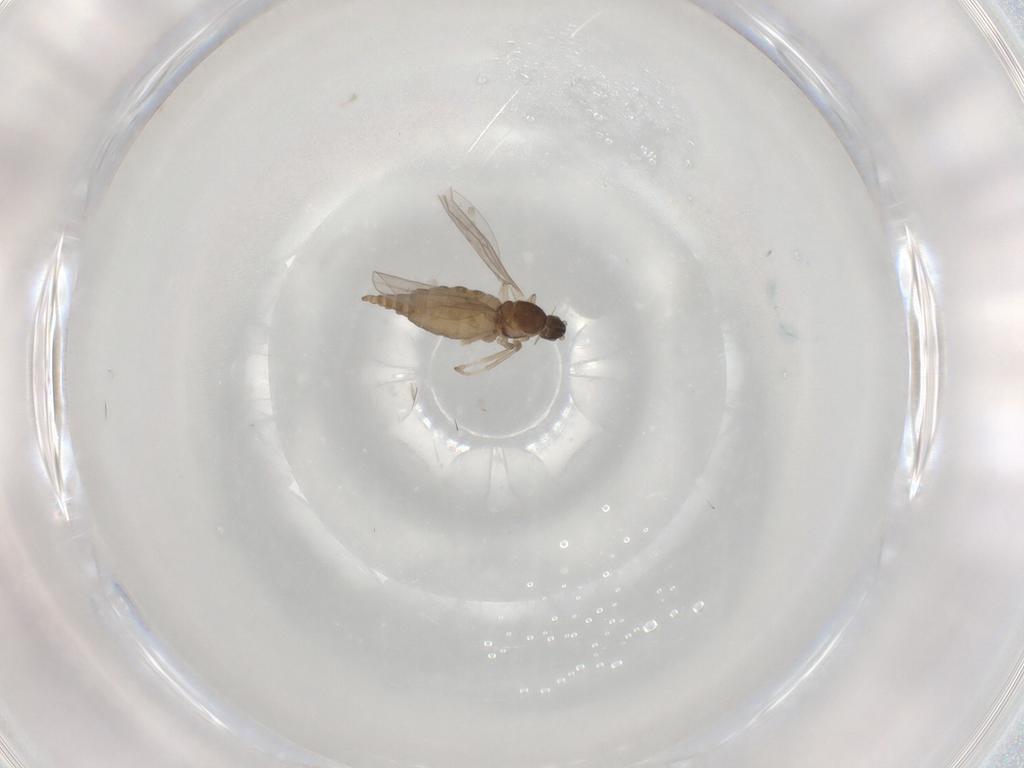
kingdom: Animalia
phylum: Arthropoda
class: Insecta
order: Diptera
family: Cecidomyiidae
